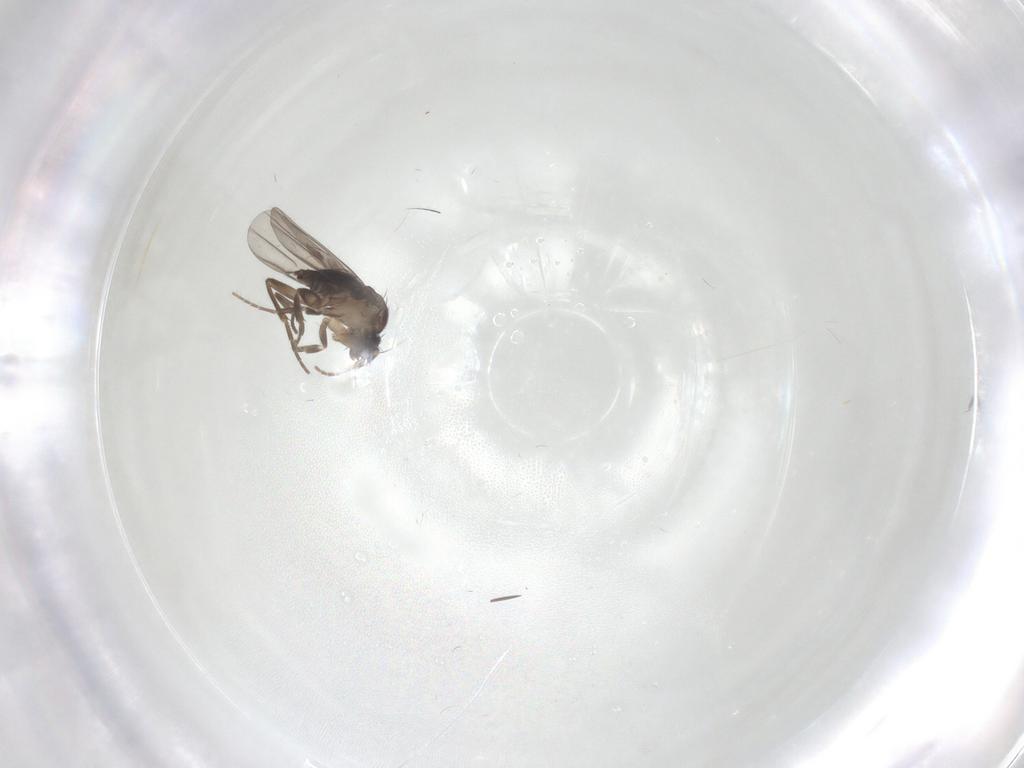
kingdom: Animalia
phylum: Arthropoda
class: Insecta
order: Diptera
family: Phoridae
